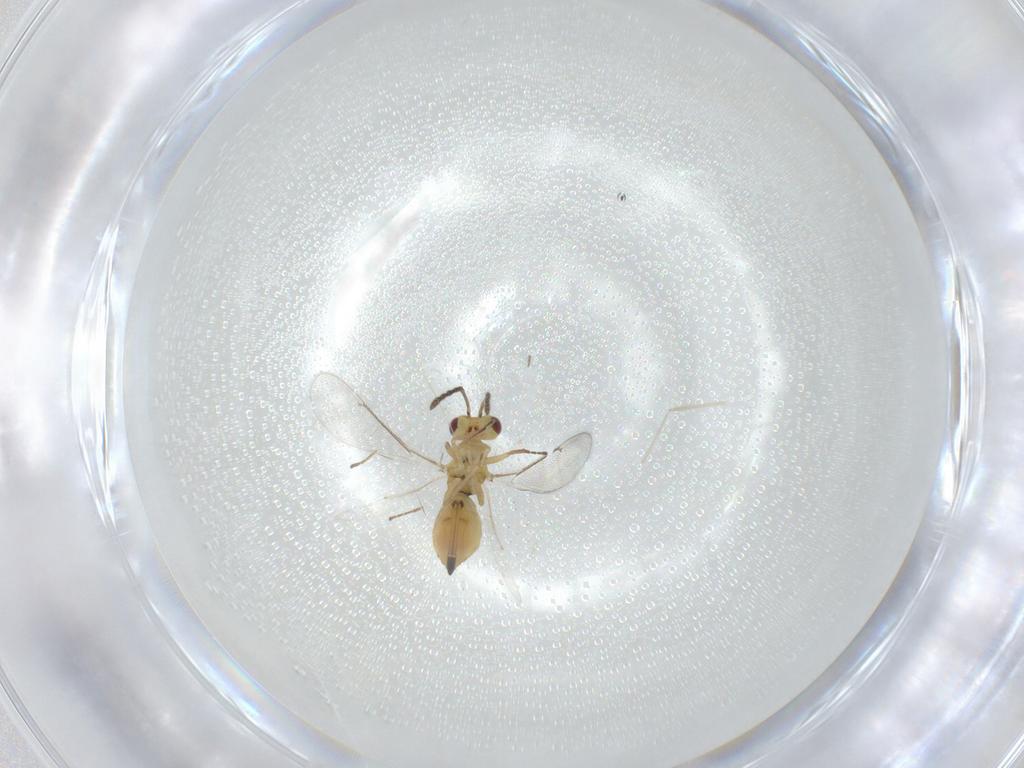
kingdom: Animalia
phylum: Arthropoda
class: Insecta
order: Hymenoptera
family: Eulophidae
